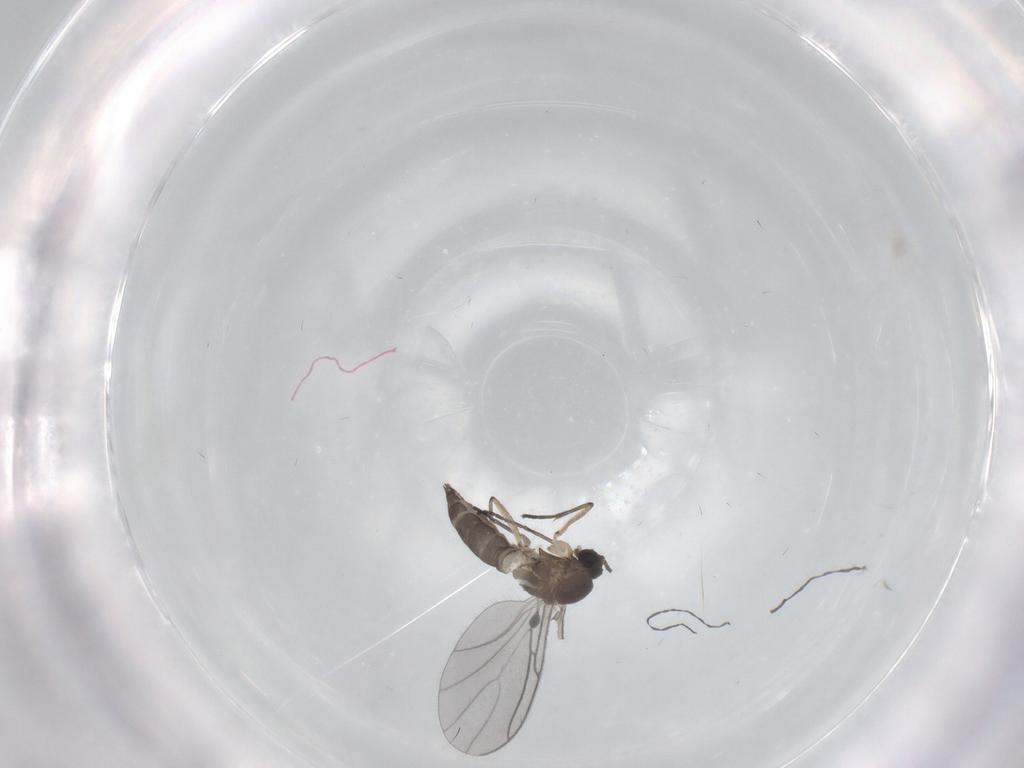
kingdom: Animalia
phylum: Arthropoda
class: Insecta
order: Diptera
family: Sciaridae
